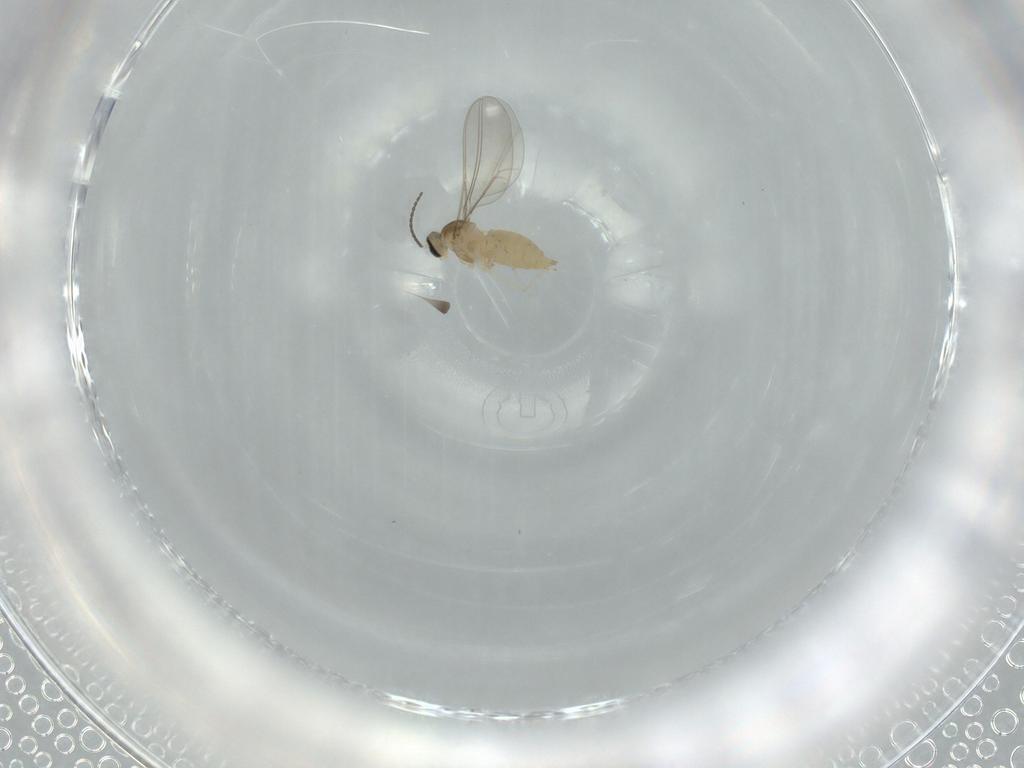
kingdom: Animalia
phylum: Arthropoda
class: Insecta
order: Diptera
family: Cecidomyiidae
